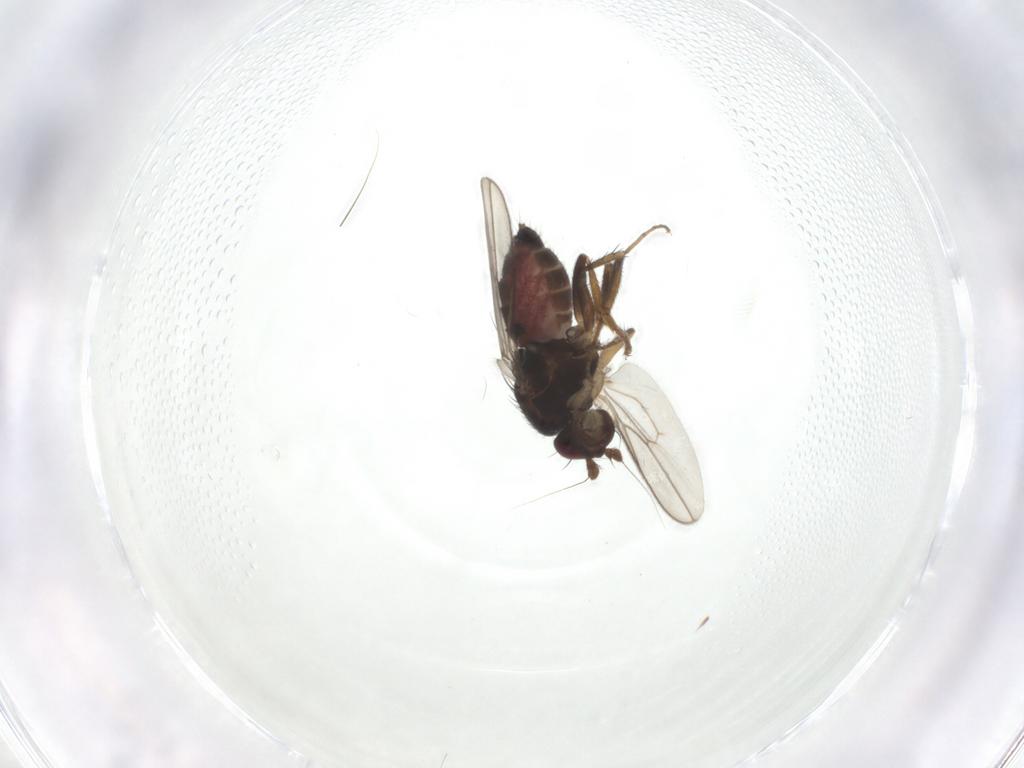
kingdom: Animalia
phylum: Arthropoda
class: Insecta
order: Diptera
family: Sphaeroceridae
